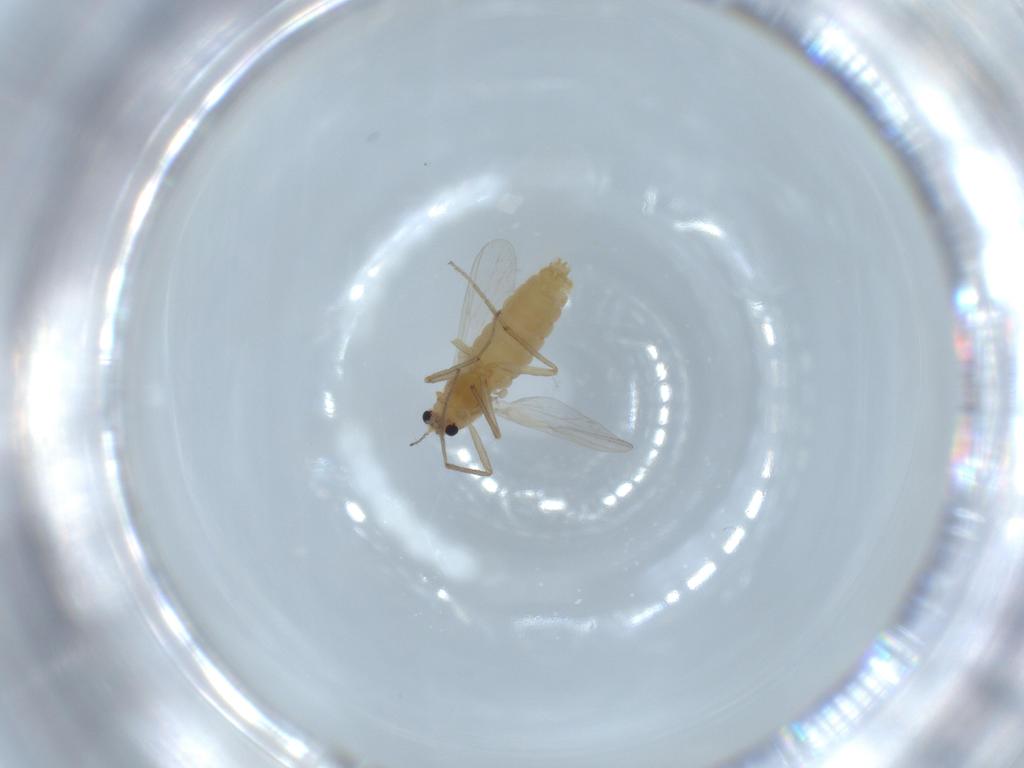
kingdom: Animalia
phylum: Arthropoda
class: Insecta
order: Diptera
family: Chironomidae
